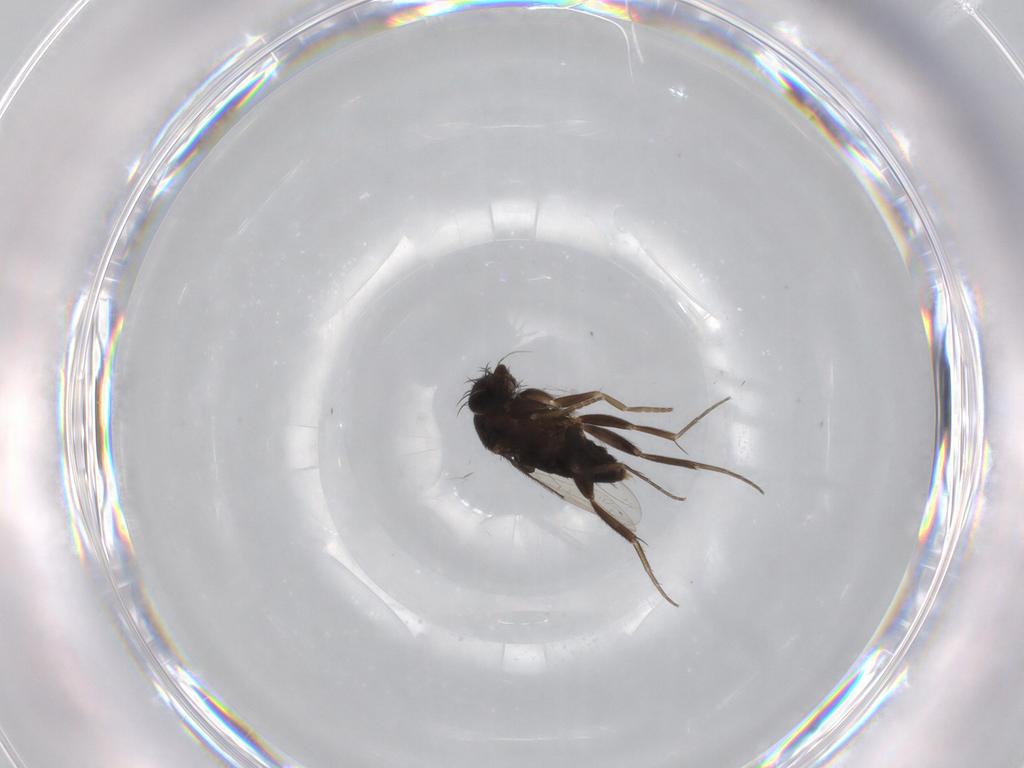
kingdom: Animalia
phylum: Arthropoda
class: Insecta
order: Diptera
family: Phoridae
